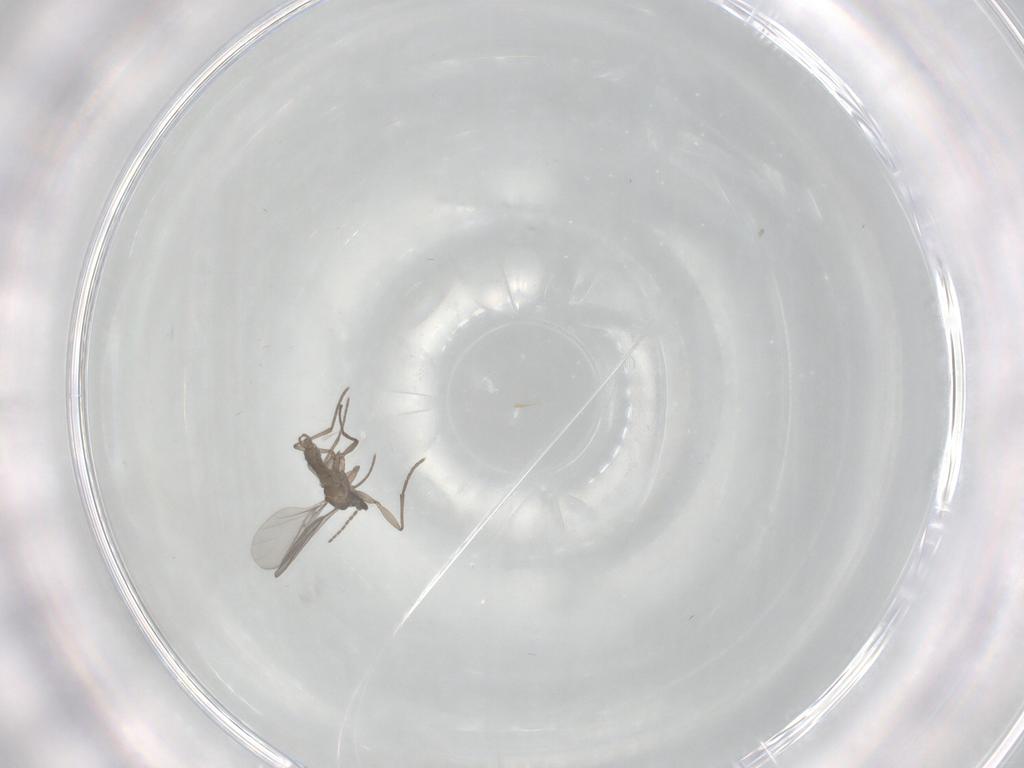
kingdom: Animalia
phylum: Arthropoda
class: Insecta
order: Diptera
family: Sciaridae
